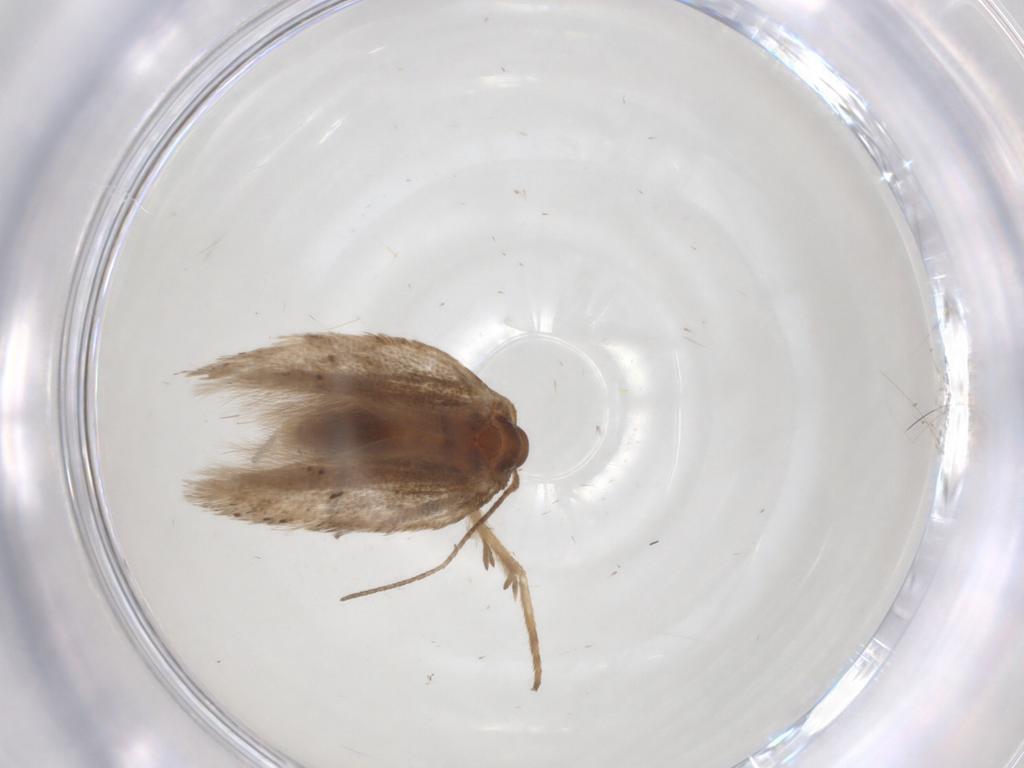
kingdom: Animalia
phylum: Arthropoda
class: Insecta
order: Lepidoptera
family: Gelechiidae
